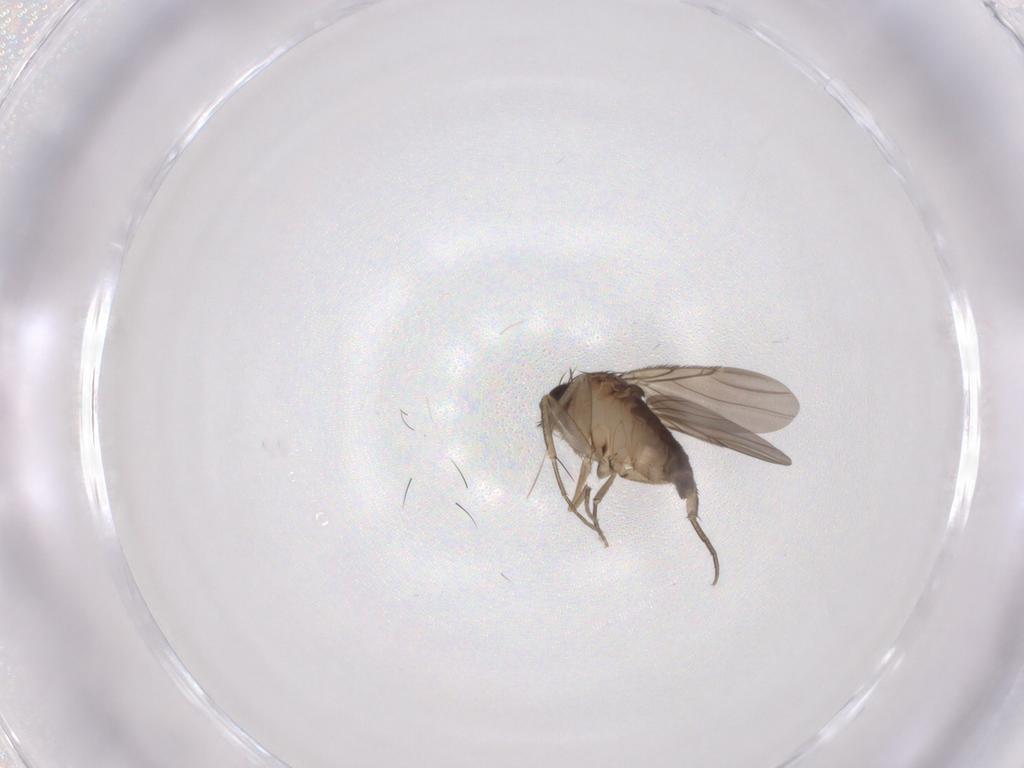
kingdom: Animalia
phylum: Arthropoda
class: Insecta
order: Diptera
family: Phoridae
